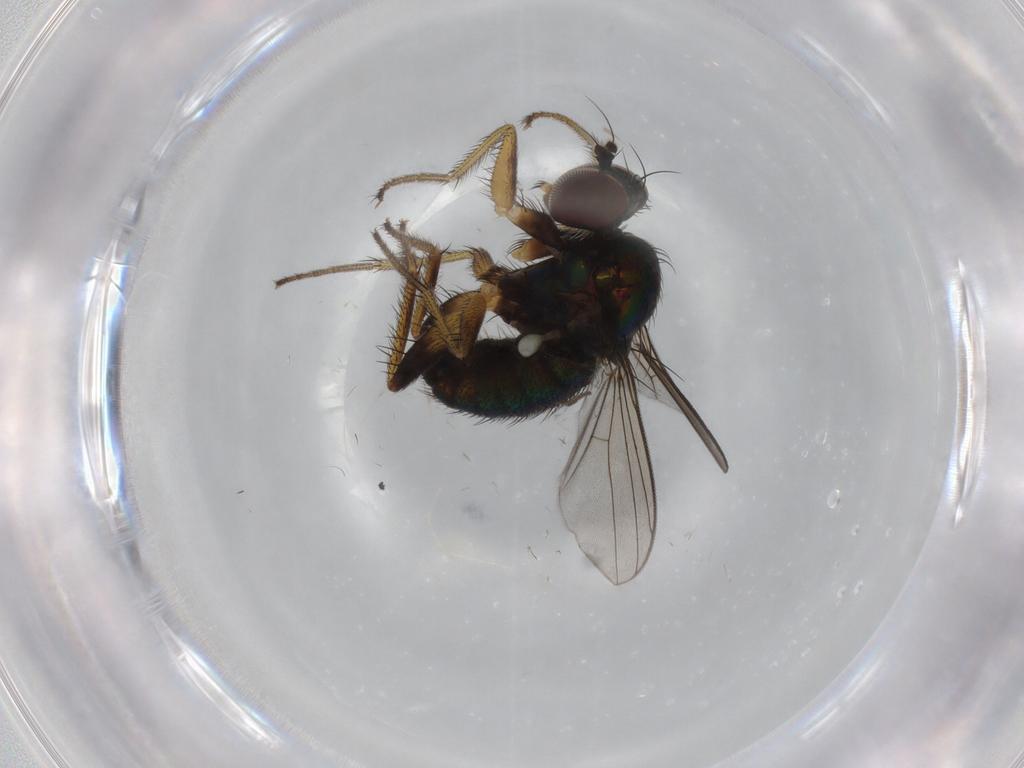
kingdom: Animalia
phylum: Arthropoda
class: Insecta
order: Diptera
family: Dolichopodidae
